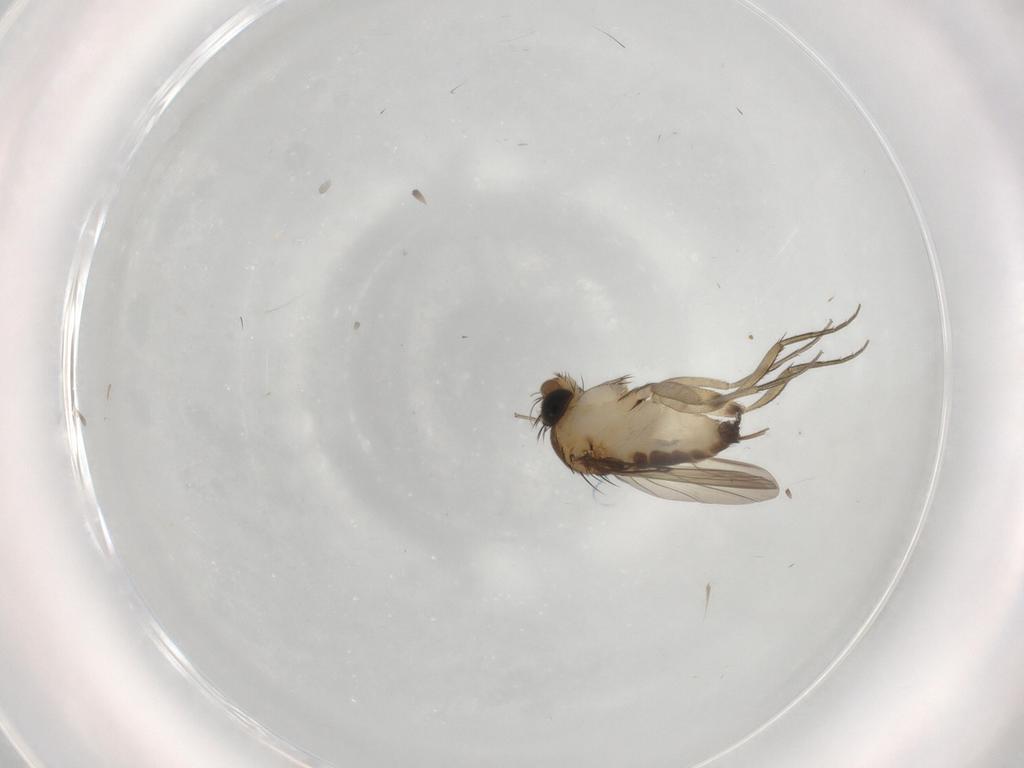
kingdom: Animalia
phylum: Arthropoda
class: Insecta
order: Diptera
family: Phoridae
